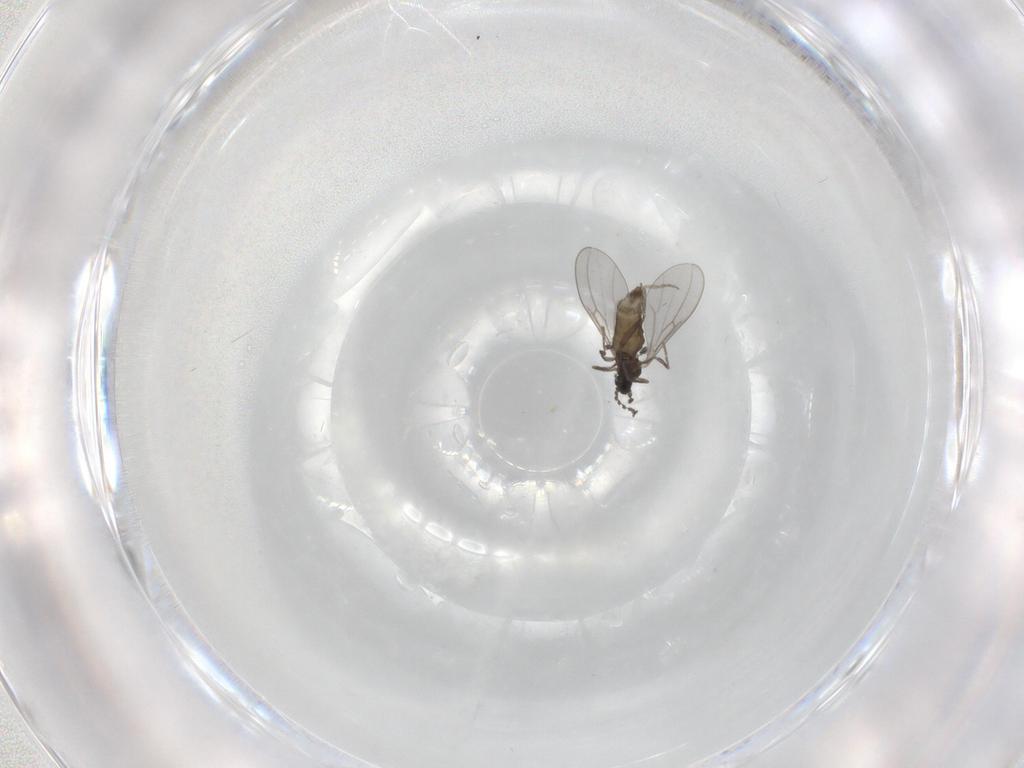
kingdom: Animalia
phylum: Arthropoda
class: Insecta
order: Diptera
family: Cecidomyiidae
